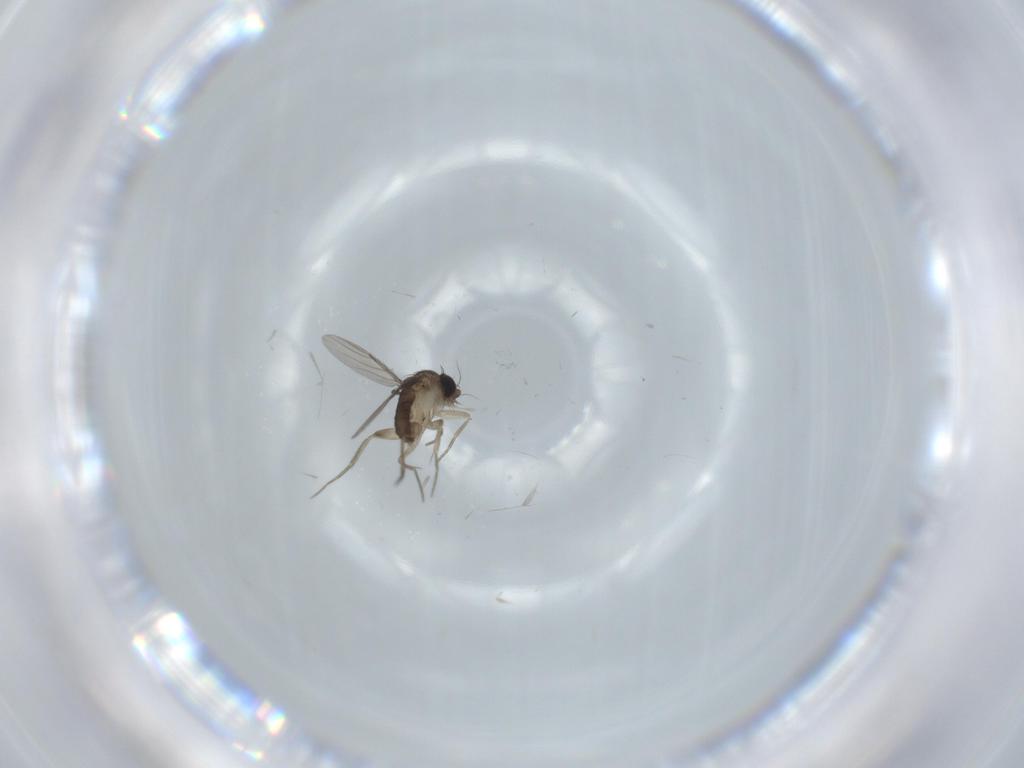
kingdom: Animalia
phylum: Arthropoda
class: Insecta
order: Diptera
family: Phoridae
